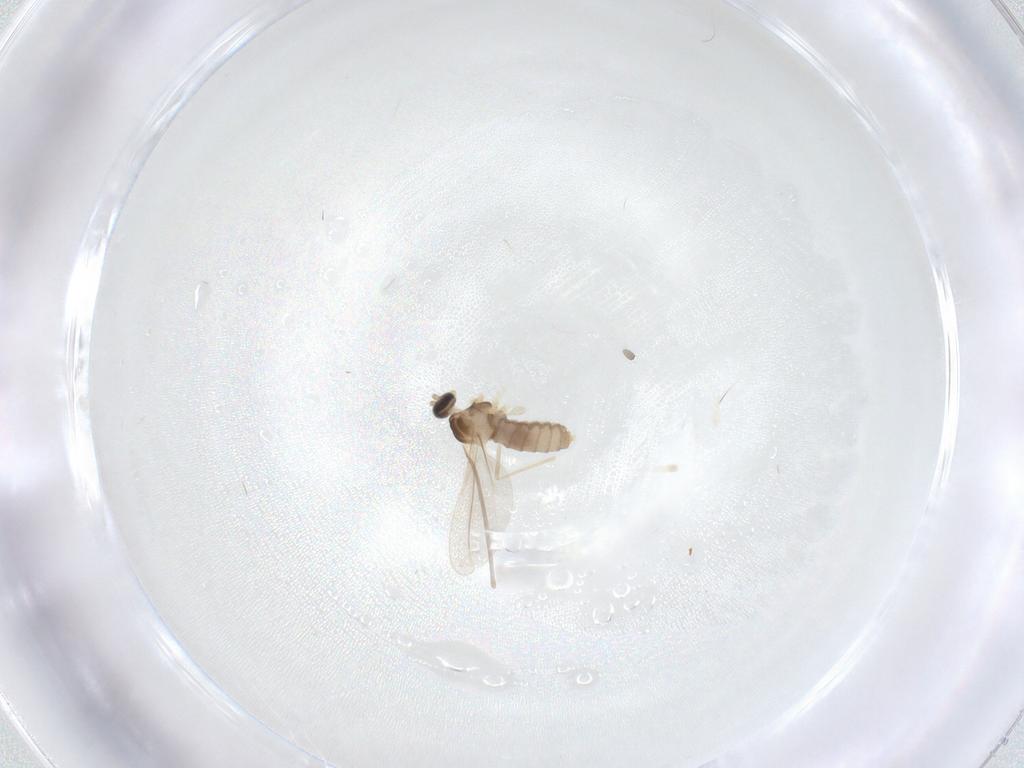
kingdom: Animalia
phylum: Arthropoda
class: Insecta
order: Diptera
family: Cecidomyiidae
